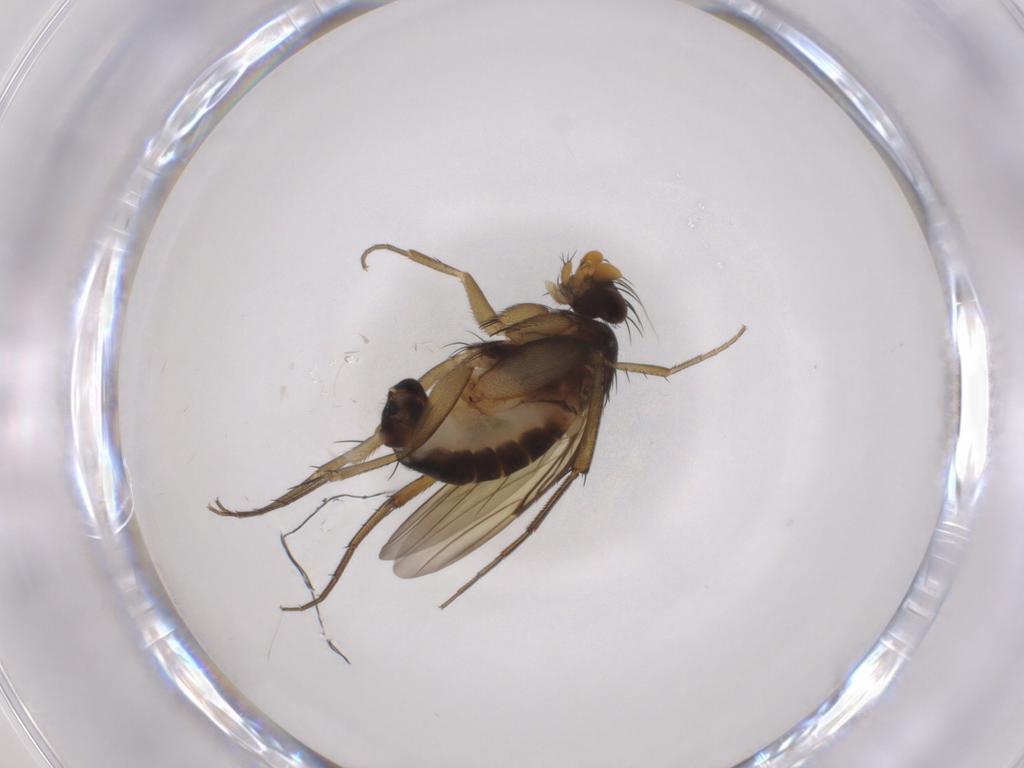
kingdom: Animalia
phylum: Arthropoda
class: Insecta
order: Diptera
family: Phoridae
